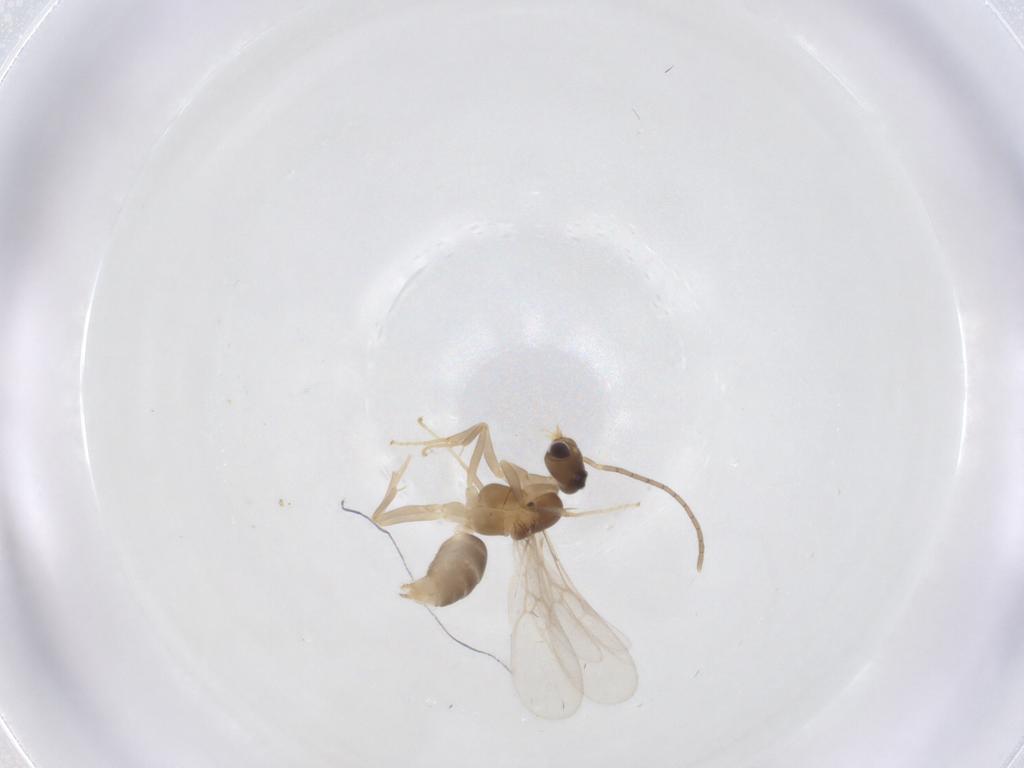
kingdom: Animalia
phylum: Arthropoda
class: Insecta
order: Hymenoptera
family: Formicidae
